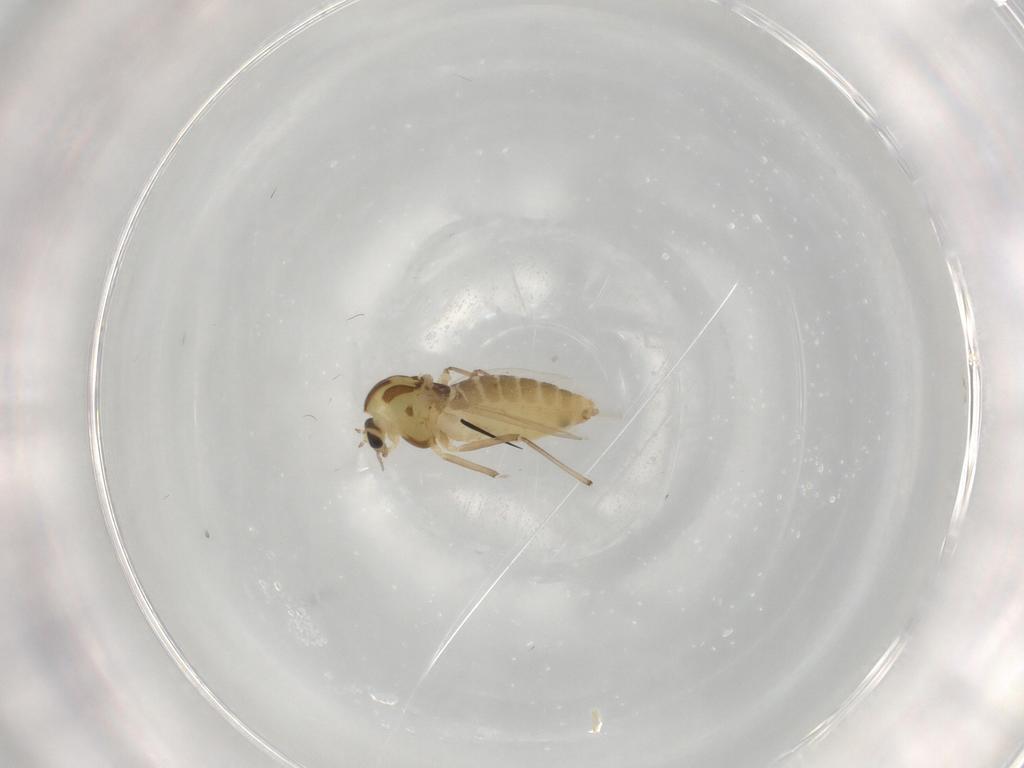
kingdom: Animalia
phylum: Arthropoda
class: Insecta
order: Diptera
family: Chironomidae
